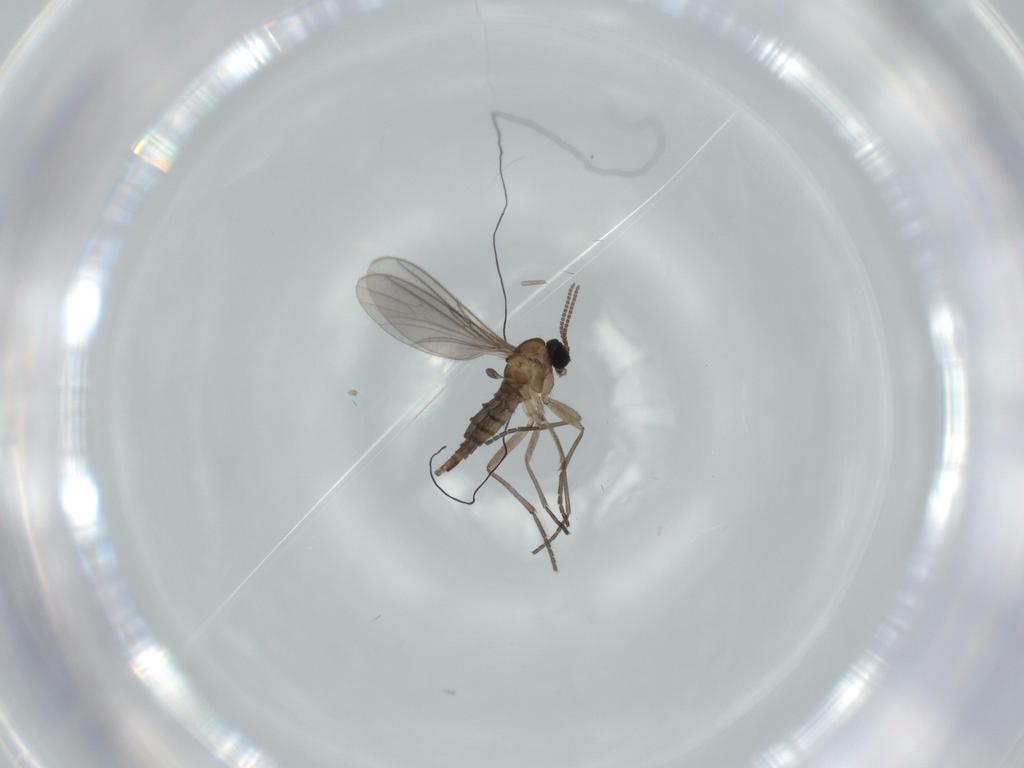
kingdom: Animalia
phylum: Arthropoda
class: Insecta
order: Diptera
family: Sciaridae
